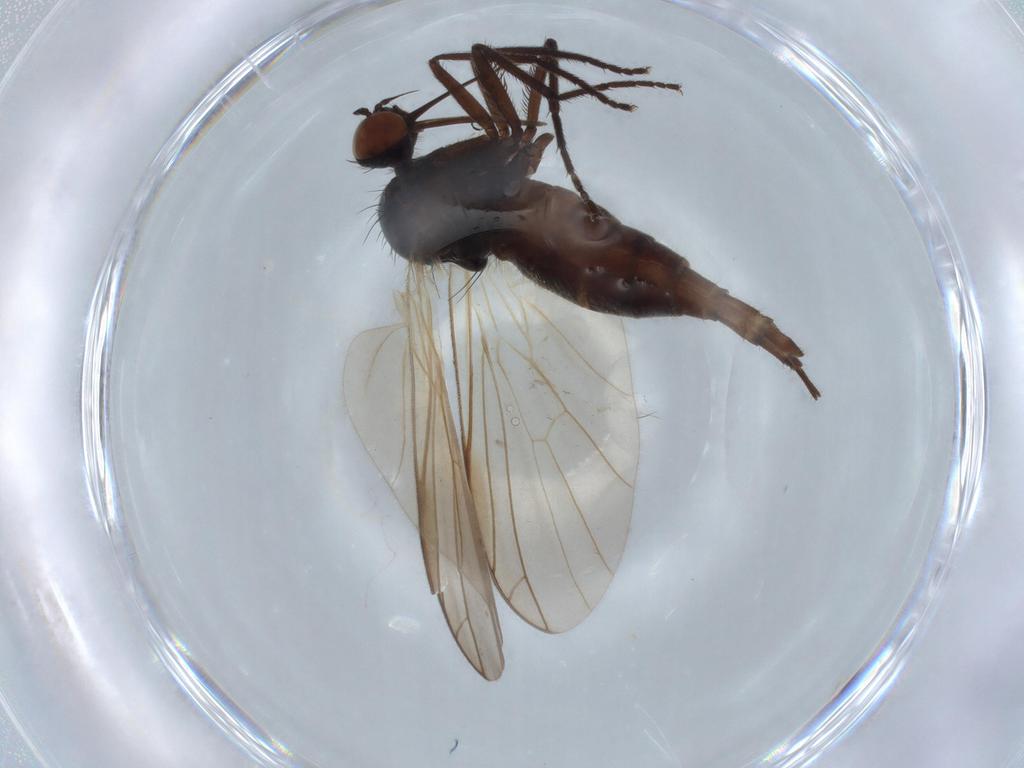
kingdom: Animalia
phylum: Arthropoda
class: Insecta
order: Diptera
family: Empididae
